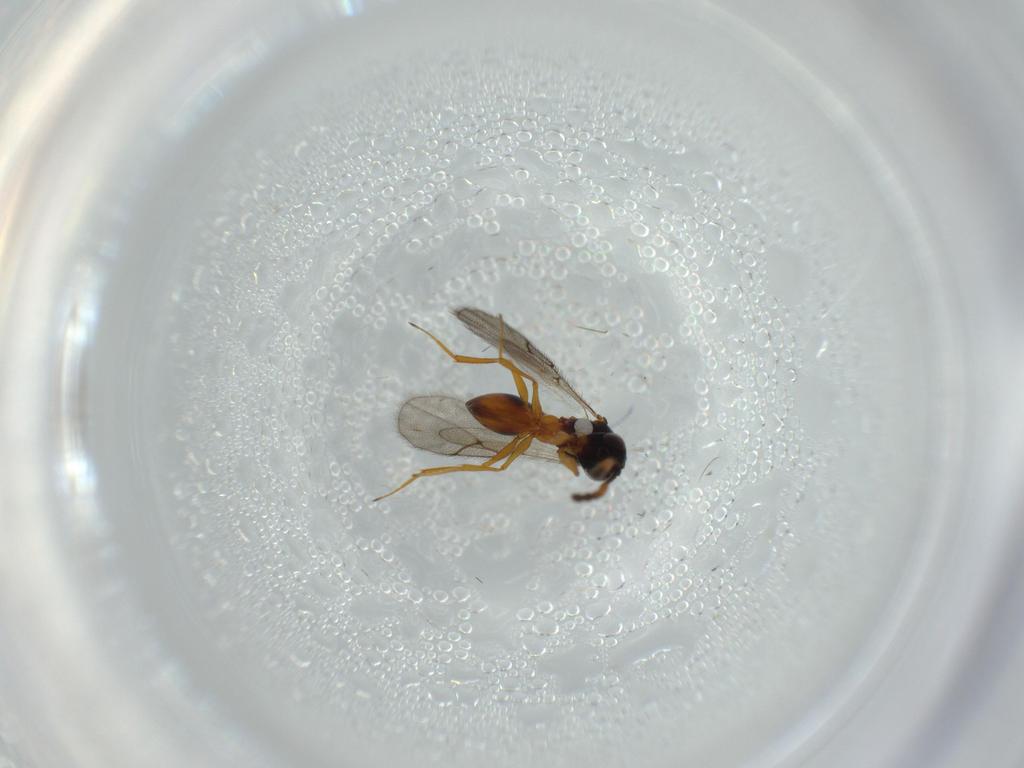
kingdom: Animalia
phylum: Arthropoda
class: Insecta
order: Hymenoptera
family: Figitidae
